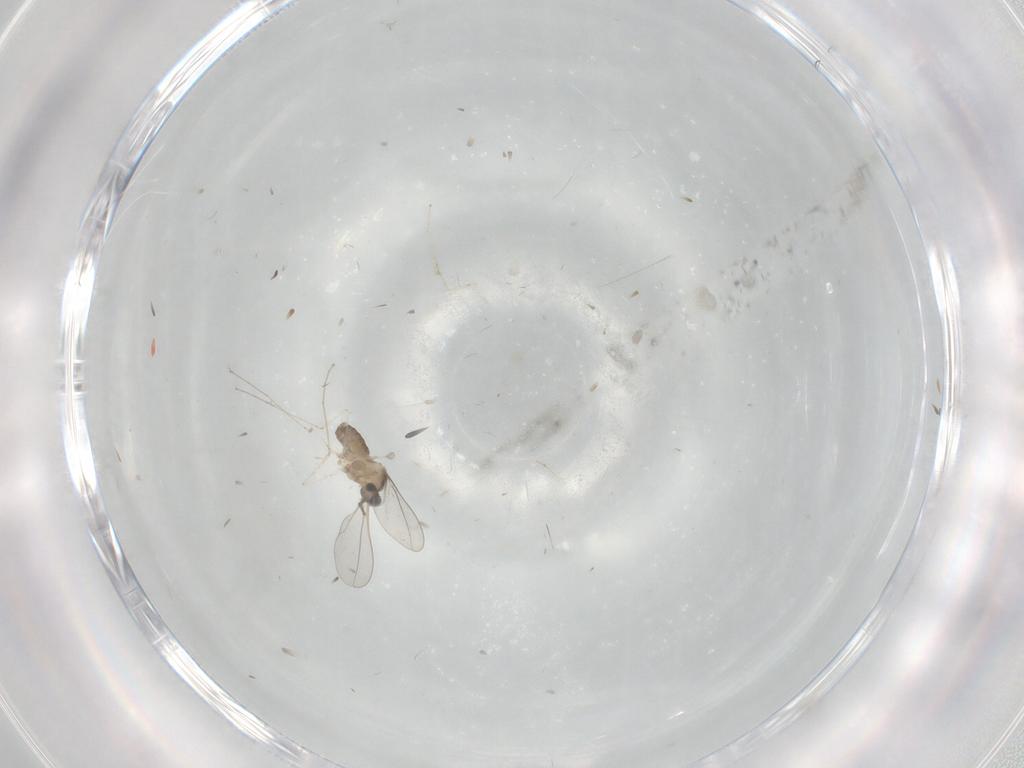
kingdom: Animalia
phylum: Arthropoda
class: Insecta
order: Diptera
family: Cecidomyiidae
